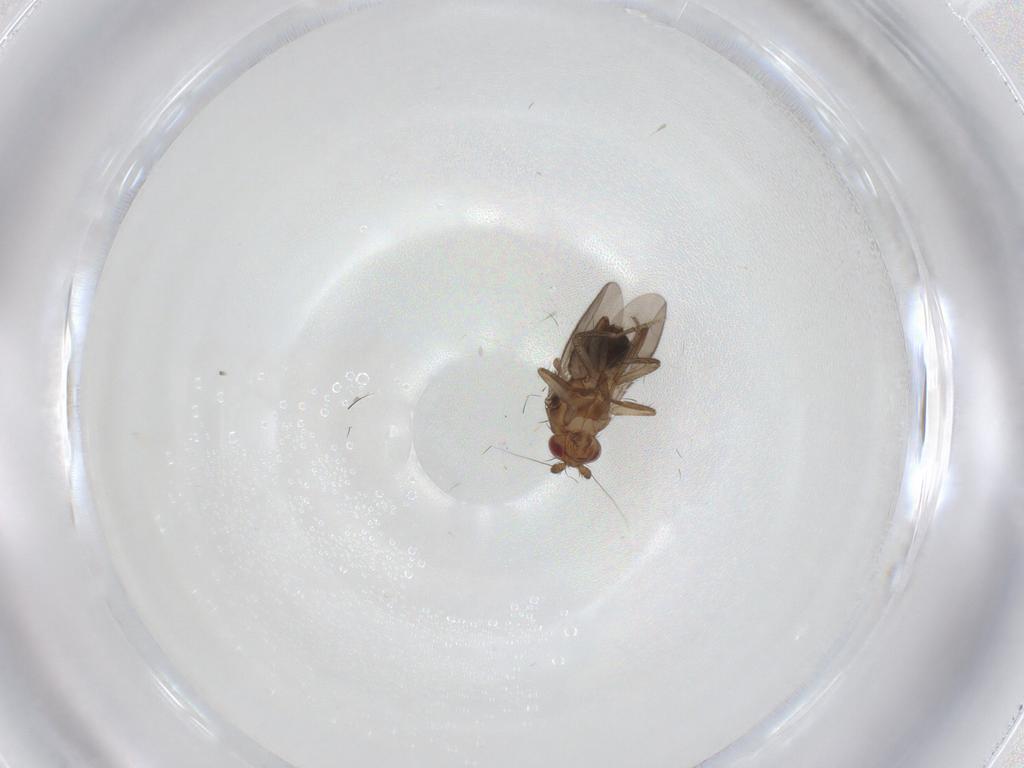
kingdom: Animalia
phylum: Arthropoda
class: Insecta
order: Diptera
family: Sphaeroceridae
